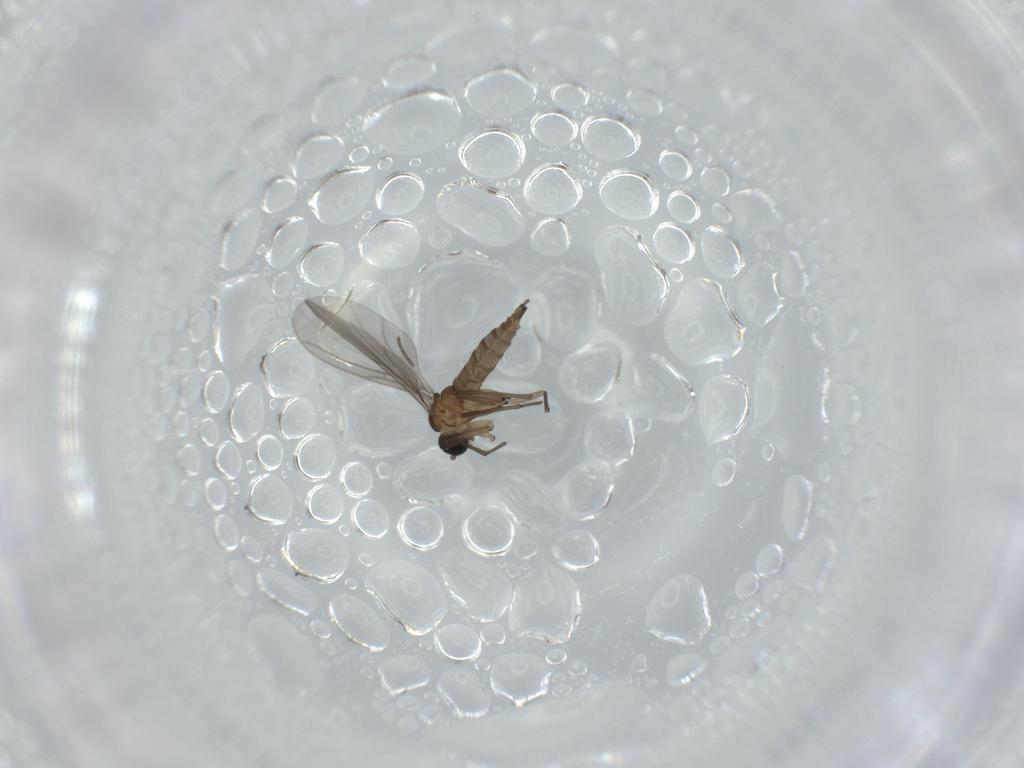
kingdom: Animalia
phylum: Arthropoda
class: Insecta
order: Diptera
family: Sciaridae
